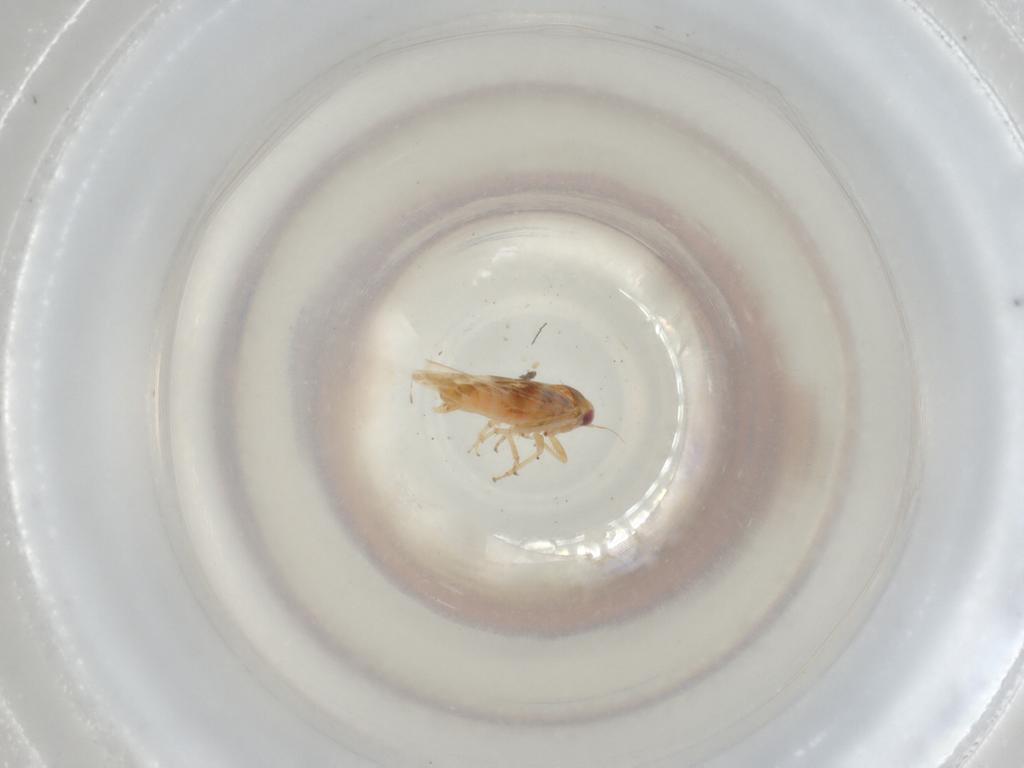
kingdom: Animalia
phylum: Arthropoda
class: Insecta
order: Hemiptera
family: Cicadellidae
